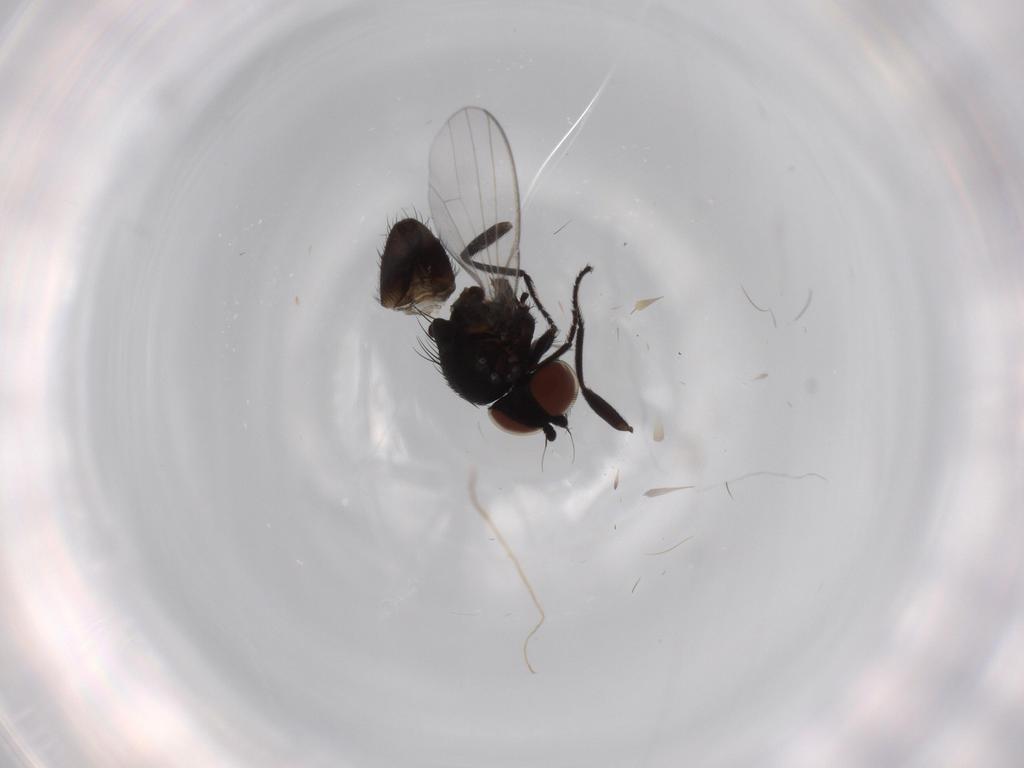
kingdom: Animalia
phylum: Arthropoda
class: Insecta
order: Diptera
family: Milichiidae
